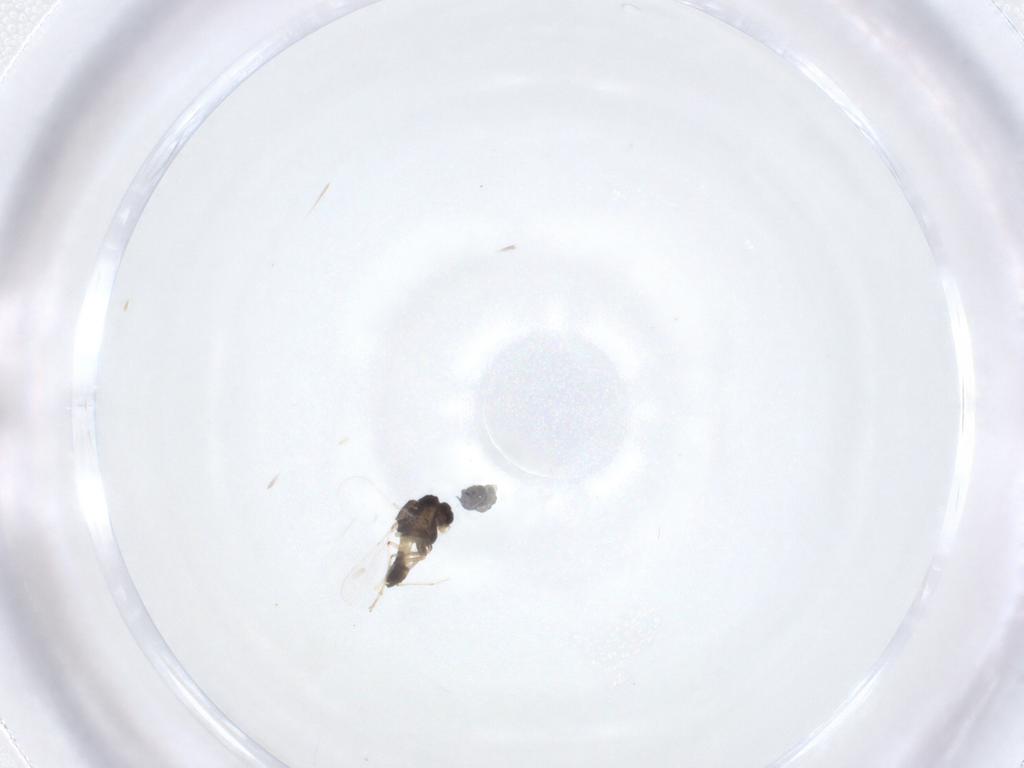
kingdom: Animalia
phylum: Arthropoda
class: Insecta
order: Diptera
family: Chironomidae
